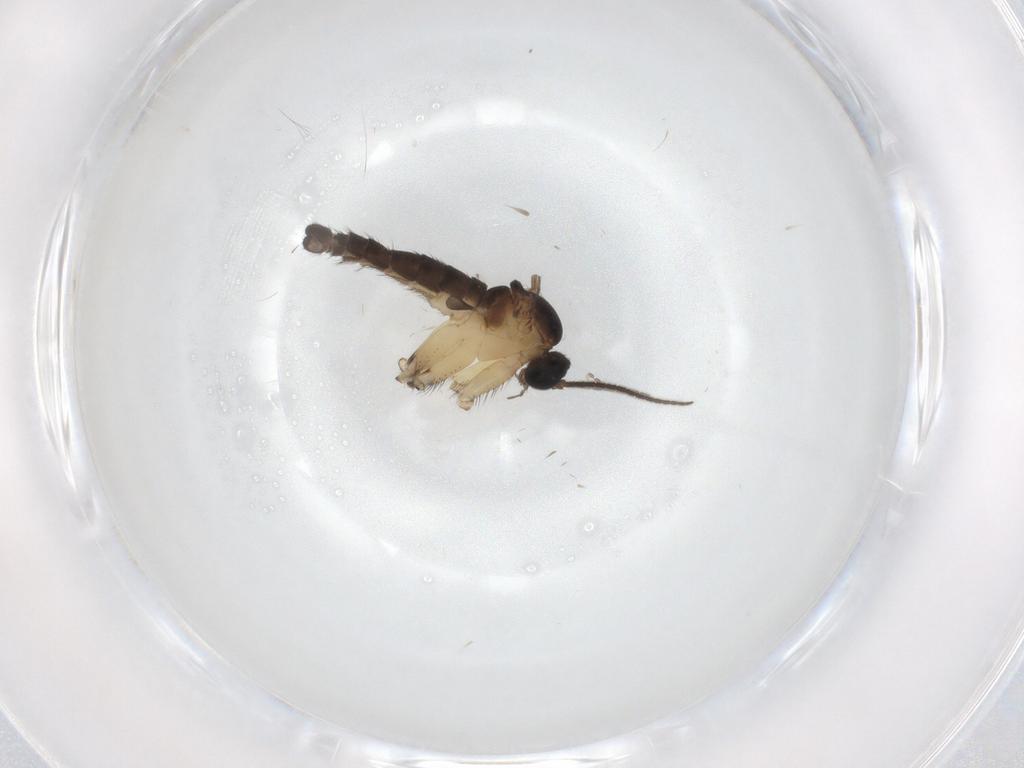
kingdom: Animalia
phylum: Arthropoda
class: Insecta
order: Diptera
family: Sciaridae
